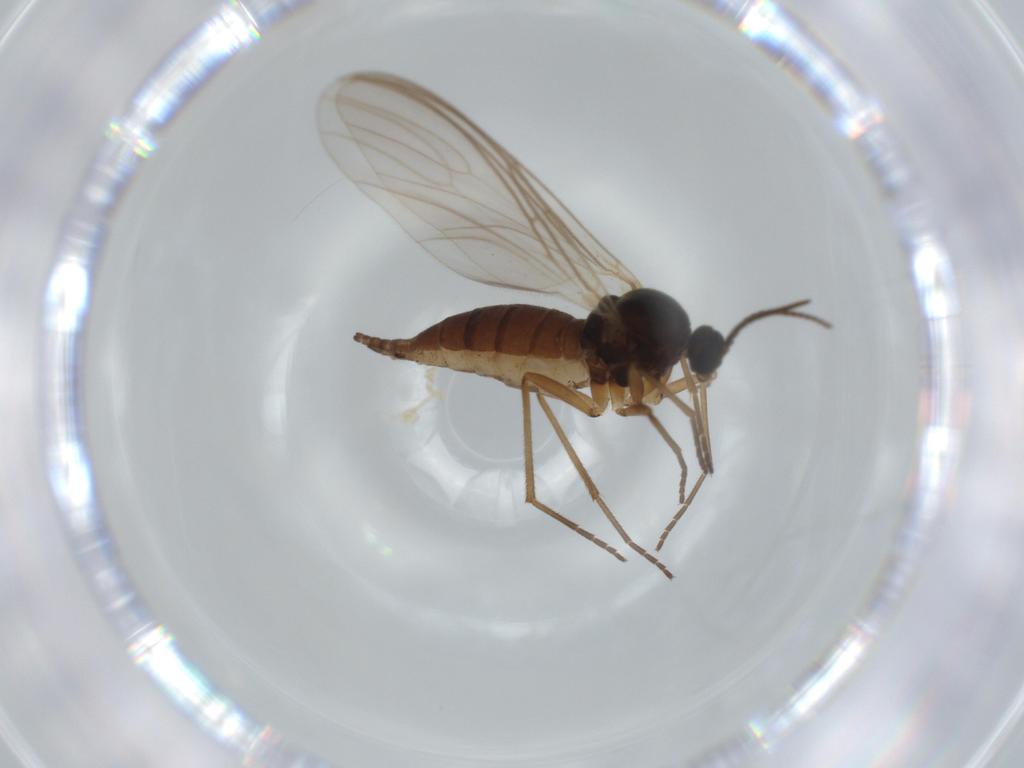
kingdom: Animalia
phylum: Arthropoda
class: Insecta
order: Diptera
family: Sciaridae
